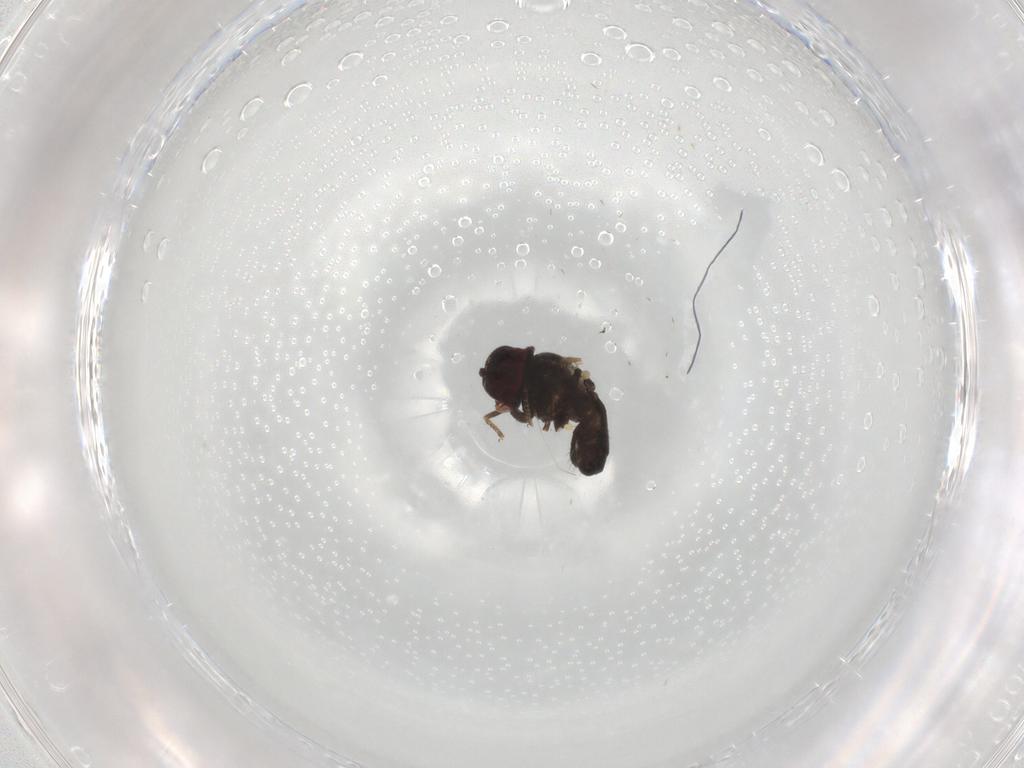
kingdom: Animalia
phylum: Arthropoda
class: Insecta
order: Diptera
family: Pipunculidae
